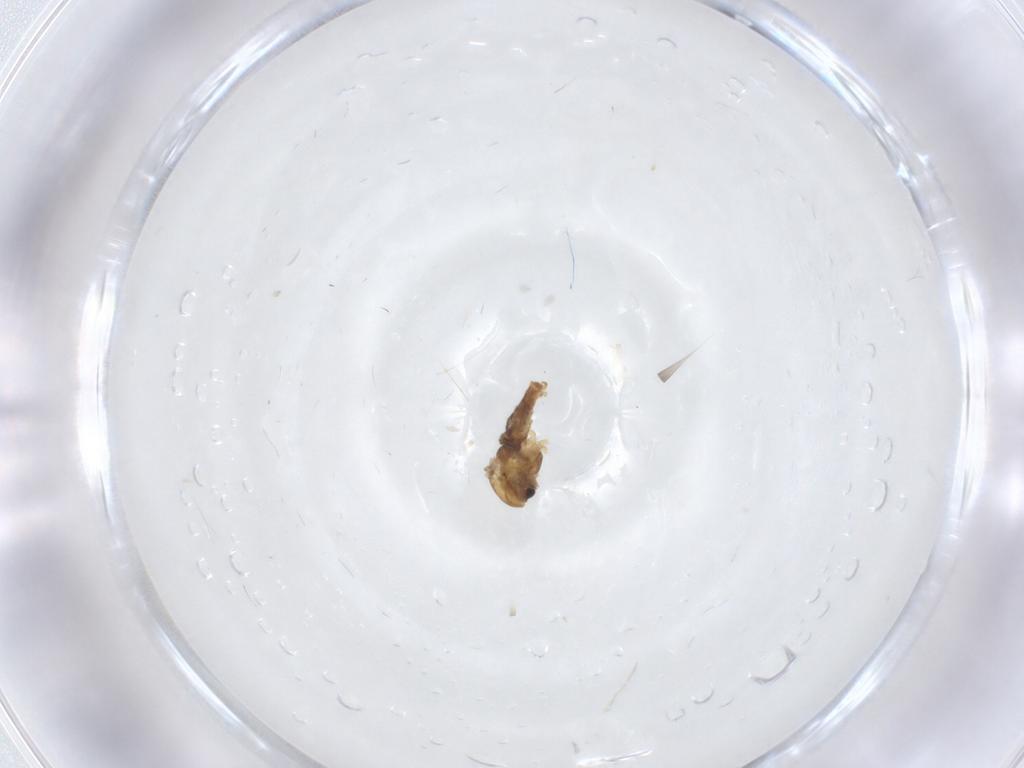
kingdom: Animalia
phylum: Arthropoda
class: Insecta
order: Diptera
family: Chironomidae
